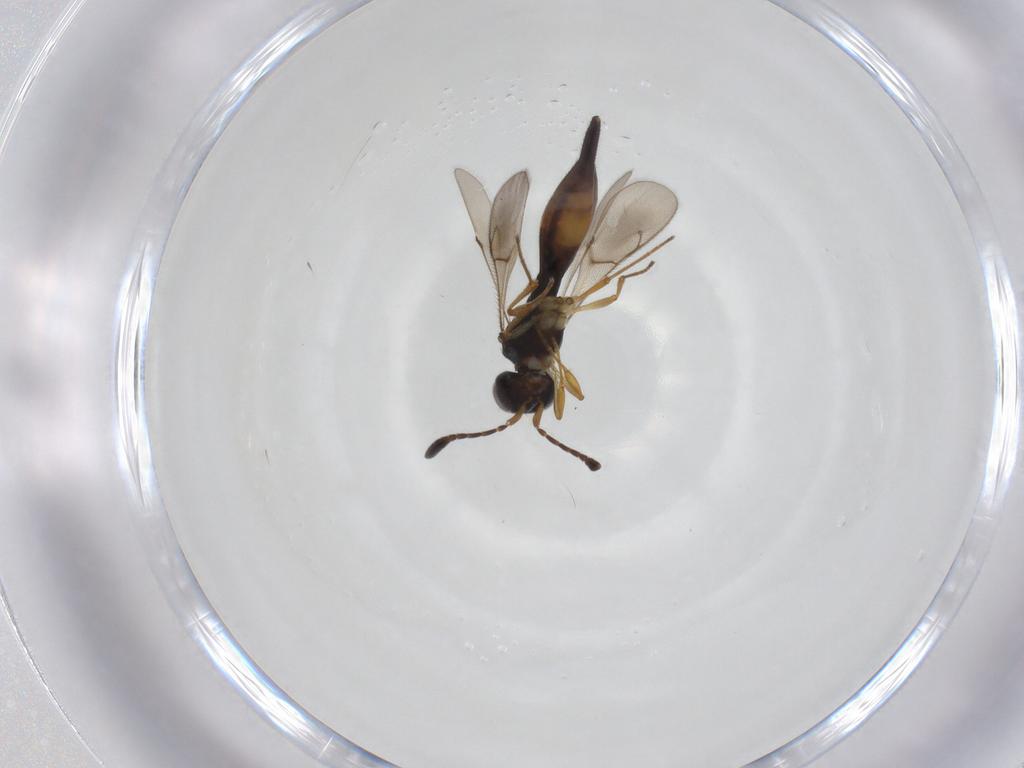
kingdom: Animalia
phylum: Arthropoda
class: Insecta
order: Hymenoptera
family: Scelionidae
